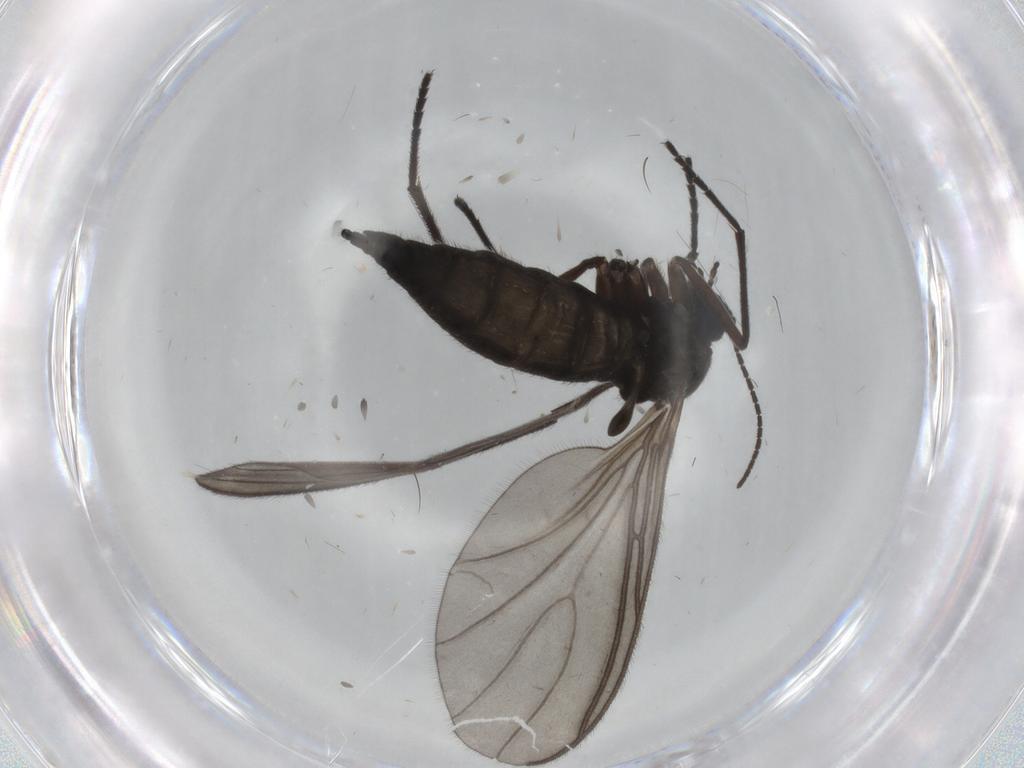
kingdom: Animalia
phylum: Arthropoda
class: Insecta
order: Diptera
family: Sciaridae
